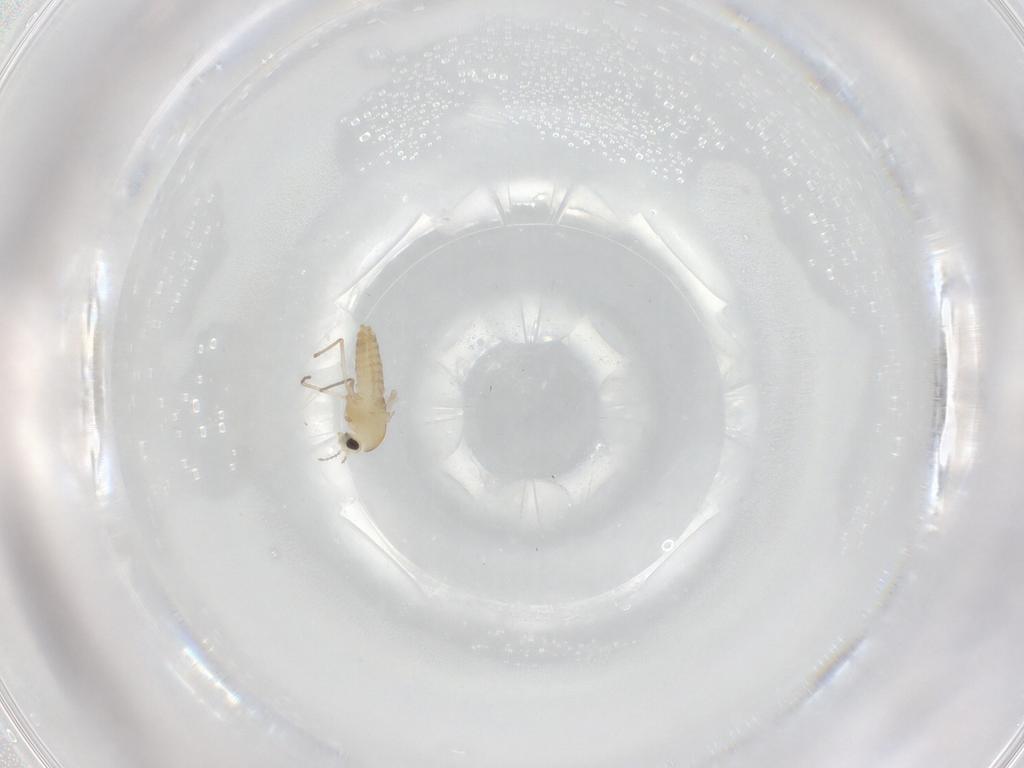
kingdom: Animalia
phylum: Arthropoda
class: Insecta
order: Diptera
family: Chironomidae
